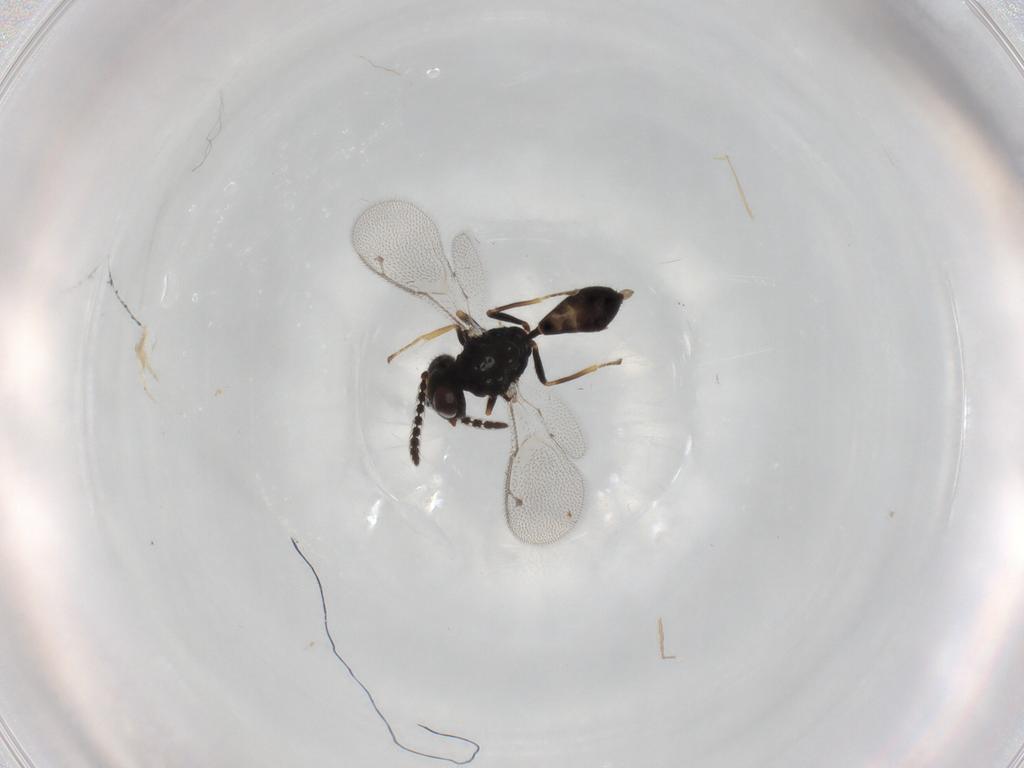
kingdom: Animalia
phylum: Arthropoda
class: Insecta
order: Hymenoptera
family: Pteromalidae
